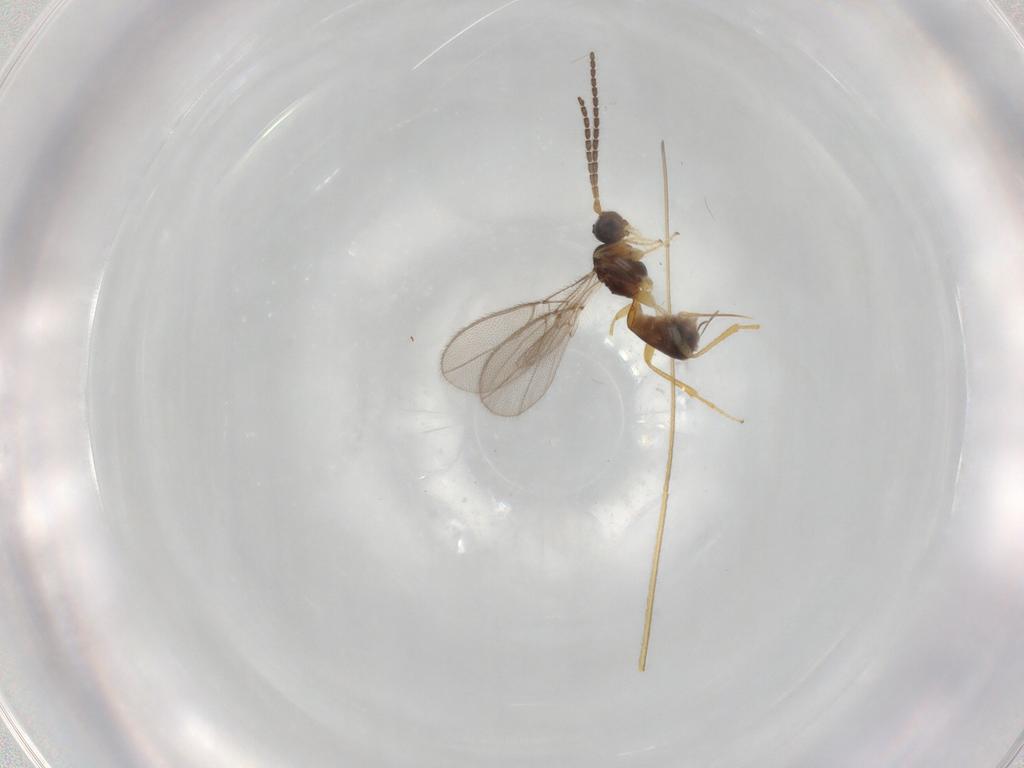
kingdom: Animalia
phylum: Arthropoda
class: Insecta
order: Hymenoptera
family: Braconidae
